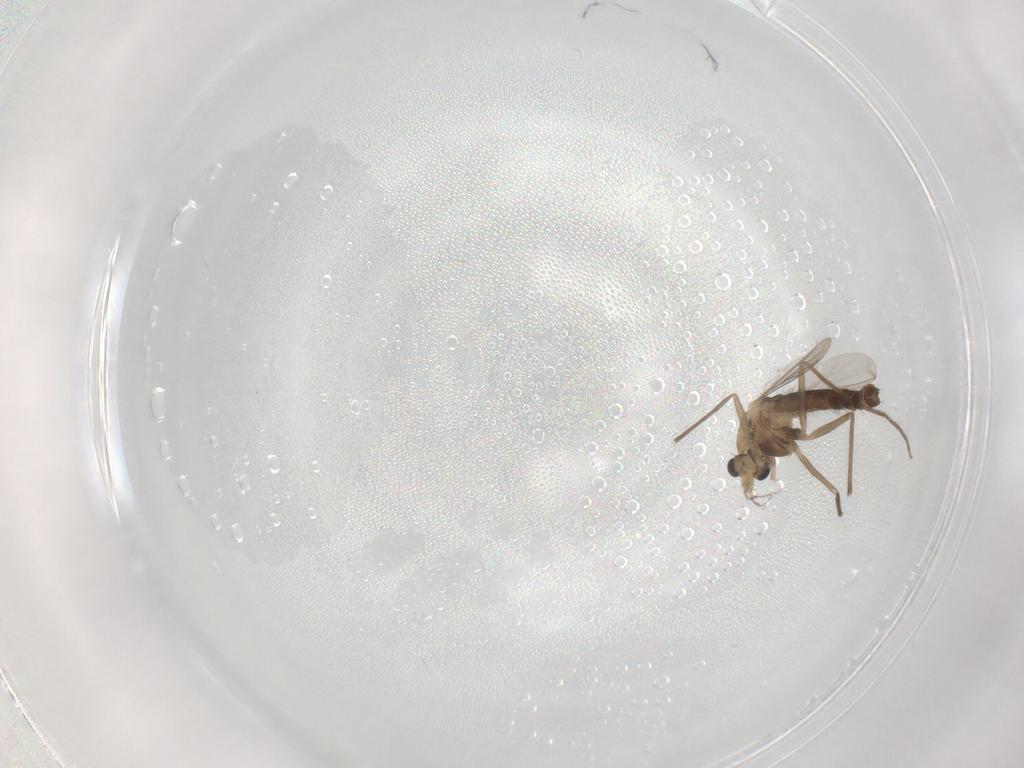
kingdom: Animalia
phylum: Arthropoda
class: Insecta
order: Diptera
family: Chironomidae
